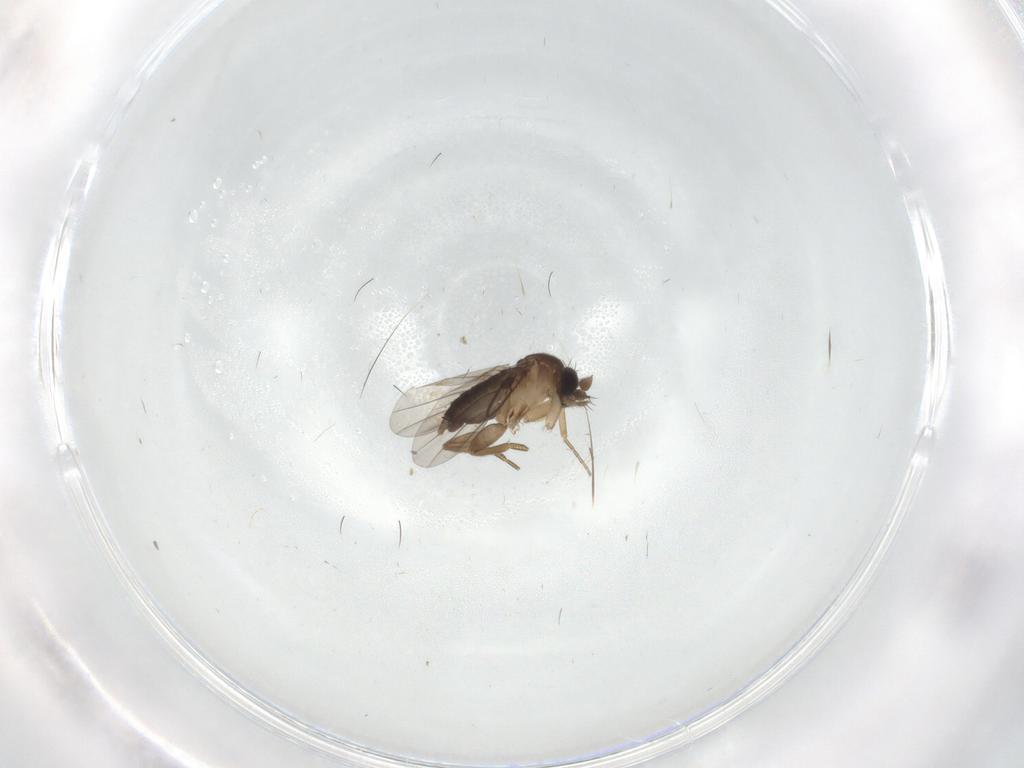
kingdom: Animalia
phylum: Arthropoda
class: Insecta
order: Diptera
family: Phoridae
